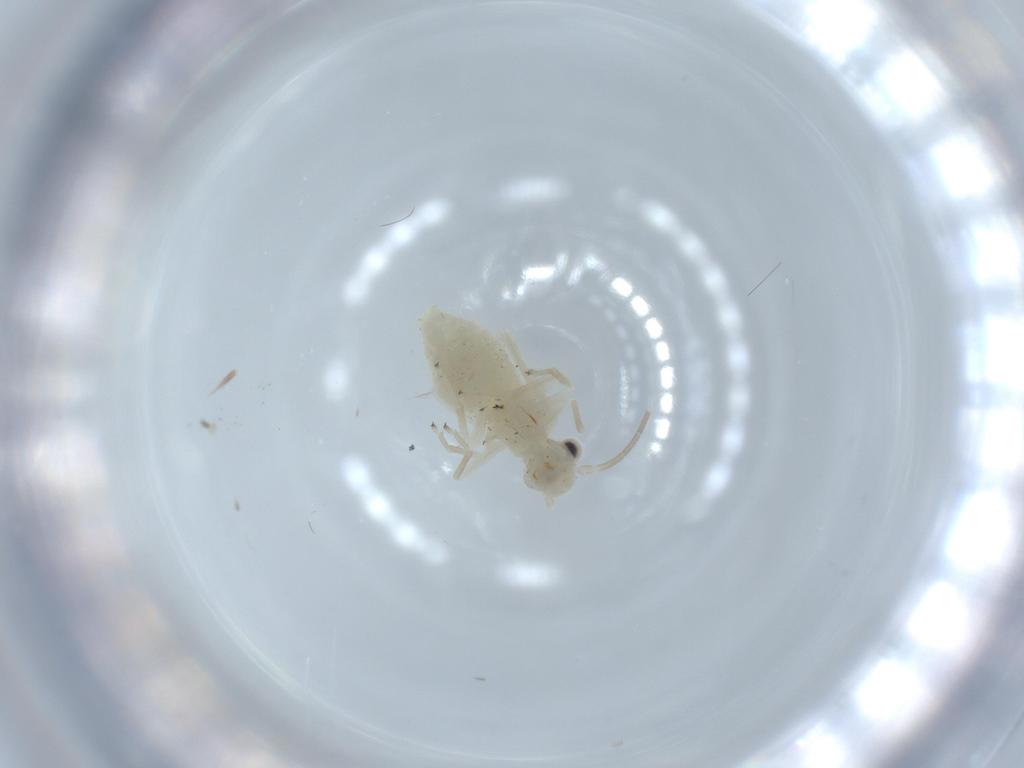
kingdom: Animalia
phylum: Arthropoda
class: Insecta
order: Psocodea
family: Caeciliusidae
